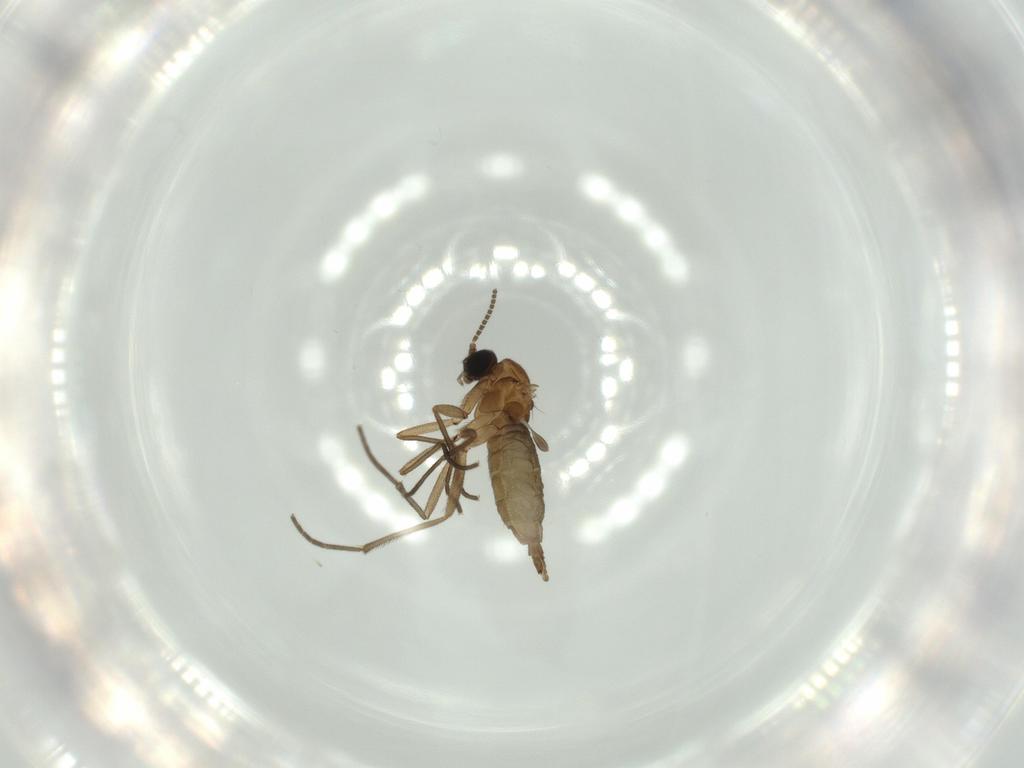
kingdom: Animalia
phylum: Arthropoda
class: Insecta
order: Diptera
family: Sciaridae
